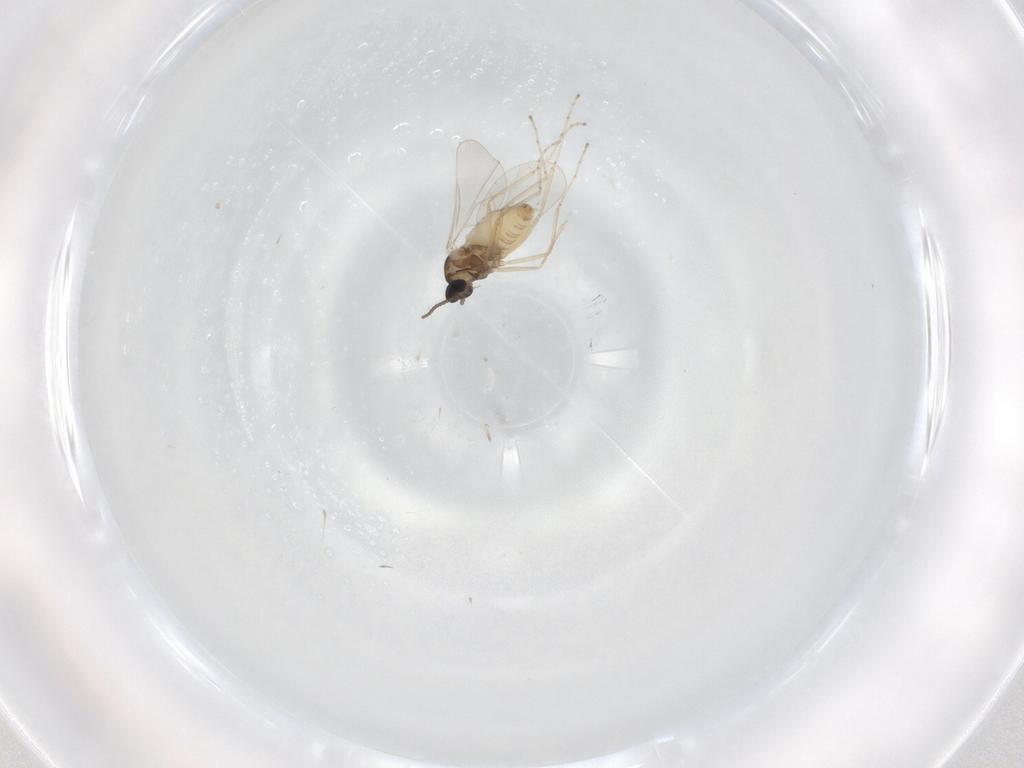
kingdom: Animalia
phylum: Arthropoda
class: Insecta
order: Diptera
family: Cecidomyiidae
